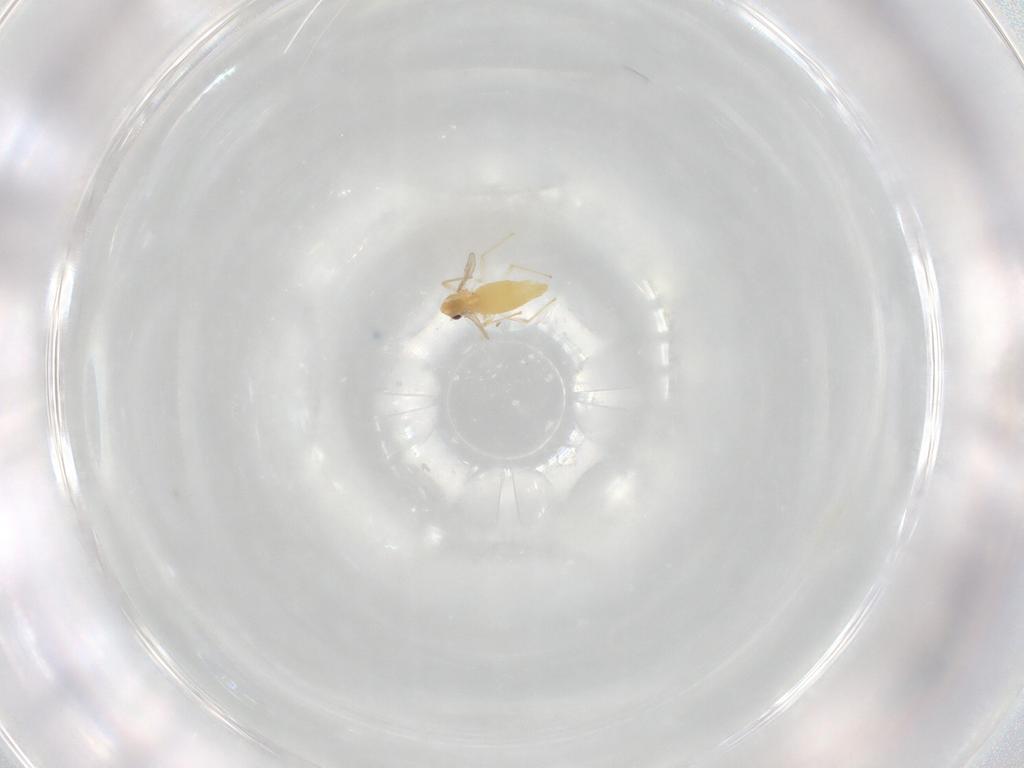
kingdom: Animalia
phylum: Arthropoda
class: Insecta
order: Diptera
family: Chironomidae
